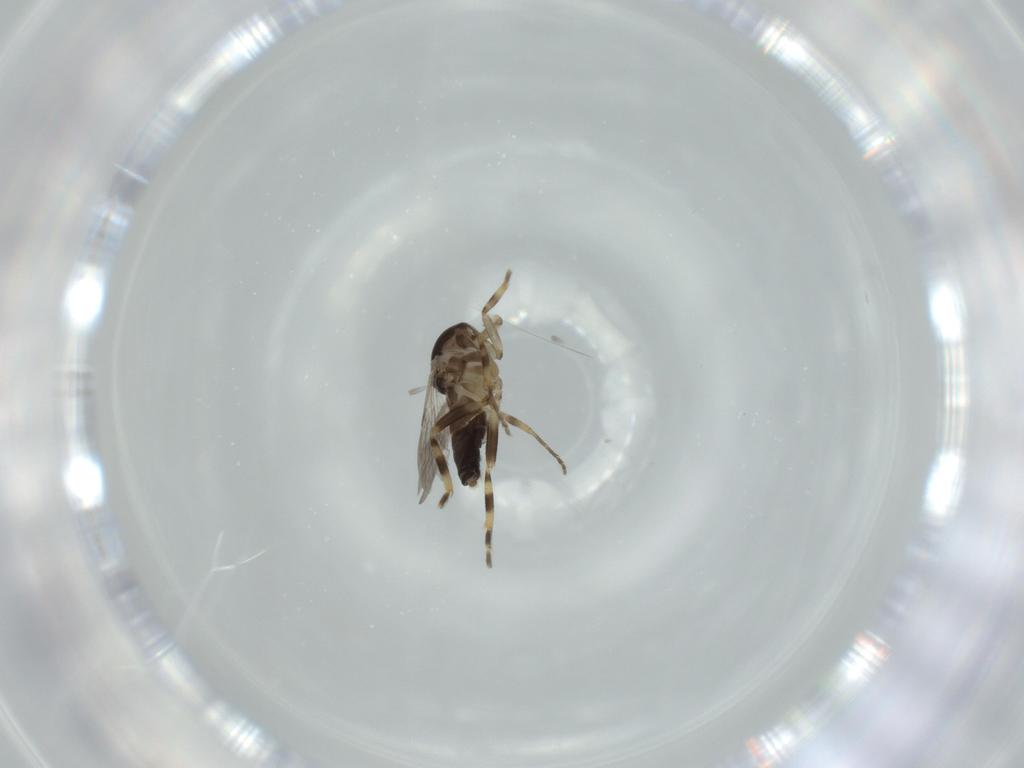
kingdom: Animalia
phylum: Arthropoda
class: Insecta
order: Diptera
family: Ceratopogonidae
